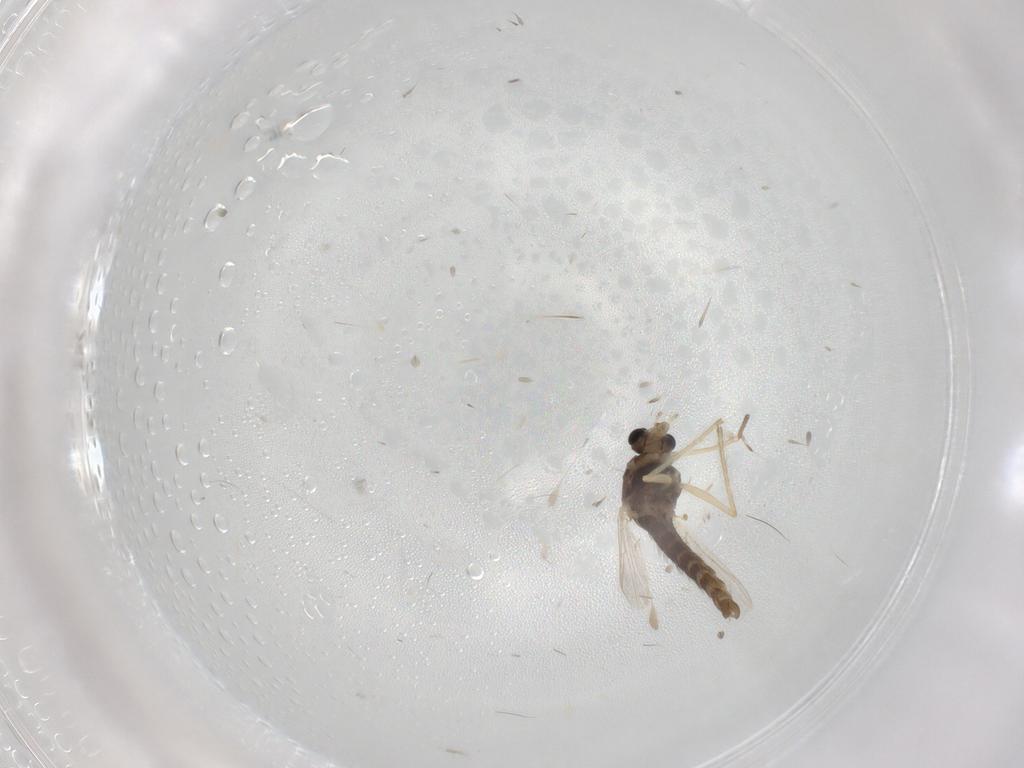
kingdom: Animalia
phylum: Arthropoda
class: Insecta
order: Diptera
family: Chironomidae
